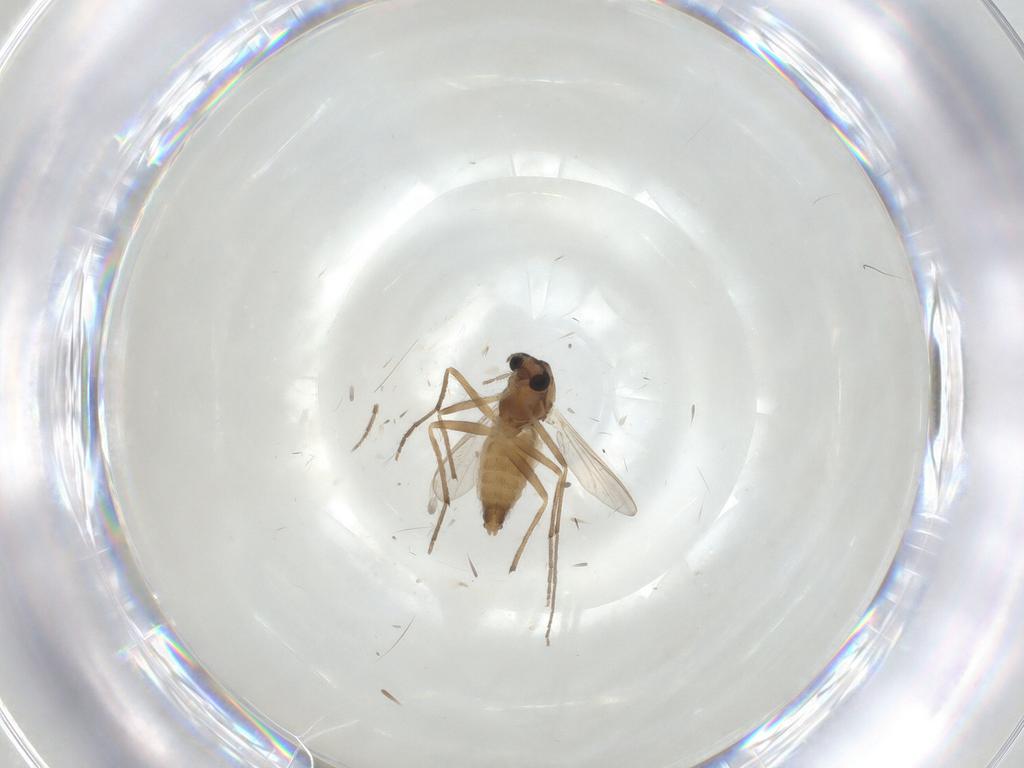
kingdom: Animalia
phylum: Arthropoda
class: Insecta
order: Diptera
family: Chironomidae
